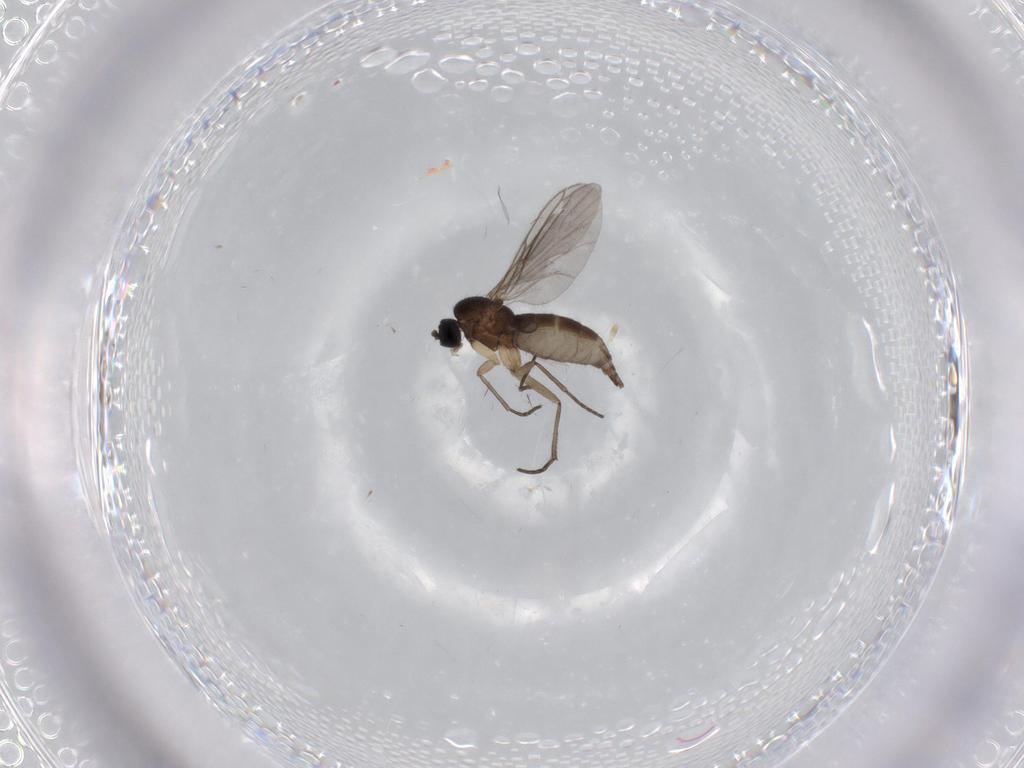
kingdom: Animalia
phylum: Arthropoda
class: Insecta
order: Diptera
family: Sciaridae
